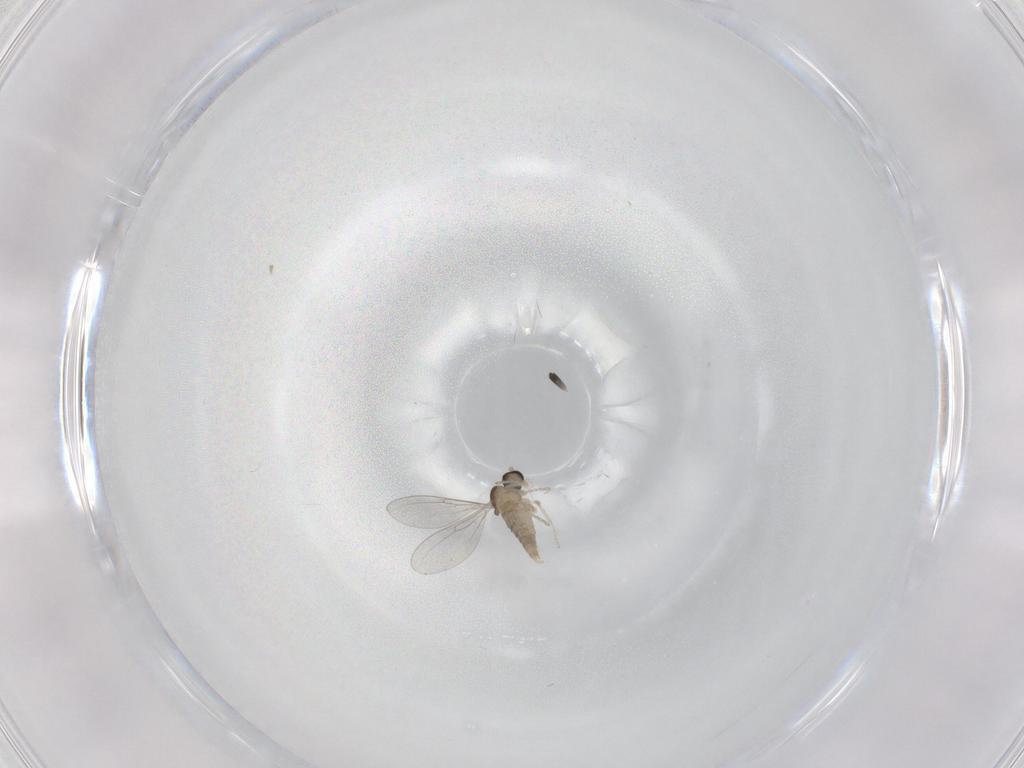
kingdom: Animalia
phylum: Arthropoda
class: Insecta
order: Diptera
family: Cecidomyiidae
